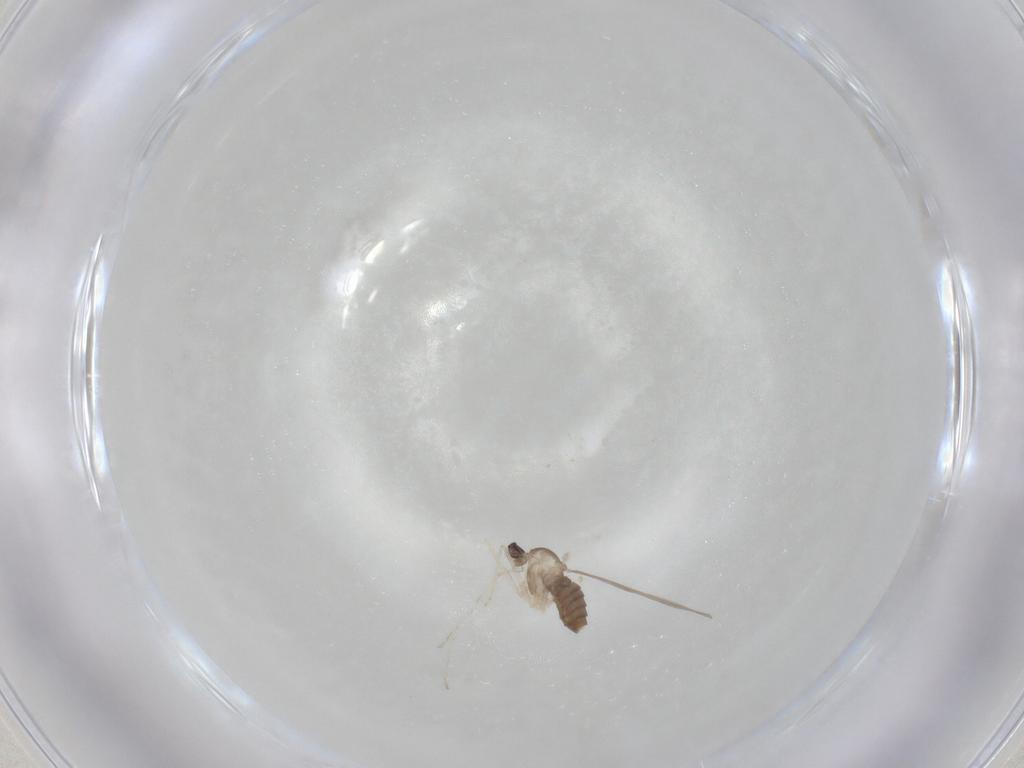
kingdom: Animalia
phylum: Arthropoda
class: Insecta
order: Diptera
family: Cecidomyiidae
